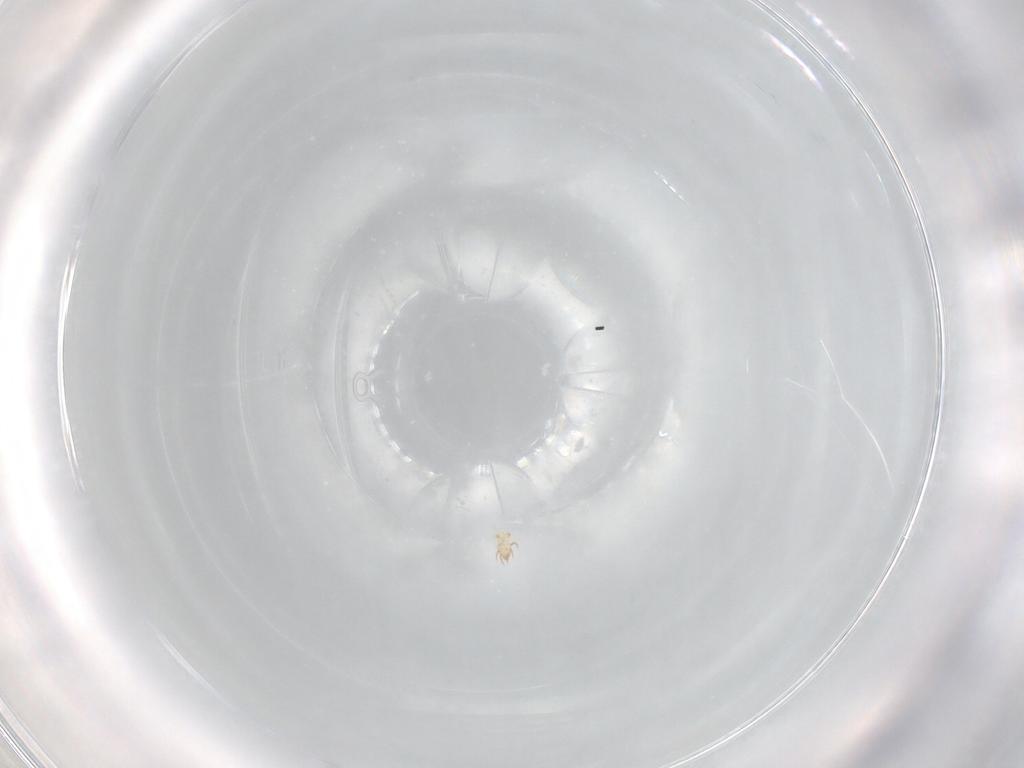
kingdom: Animalia
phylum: Arthropoda
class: Arachnida
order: Sarcoptiformes
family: Humerobatidae
